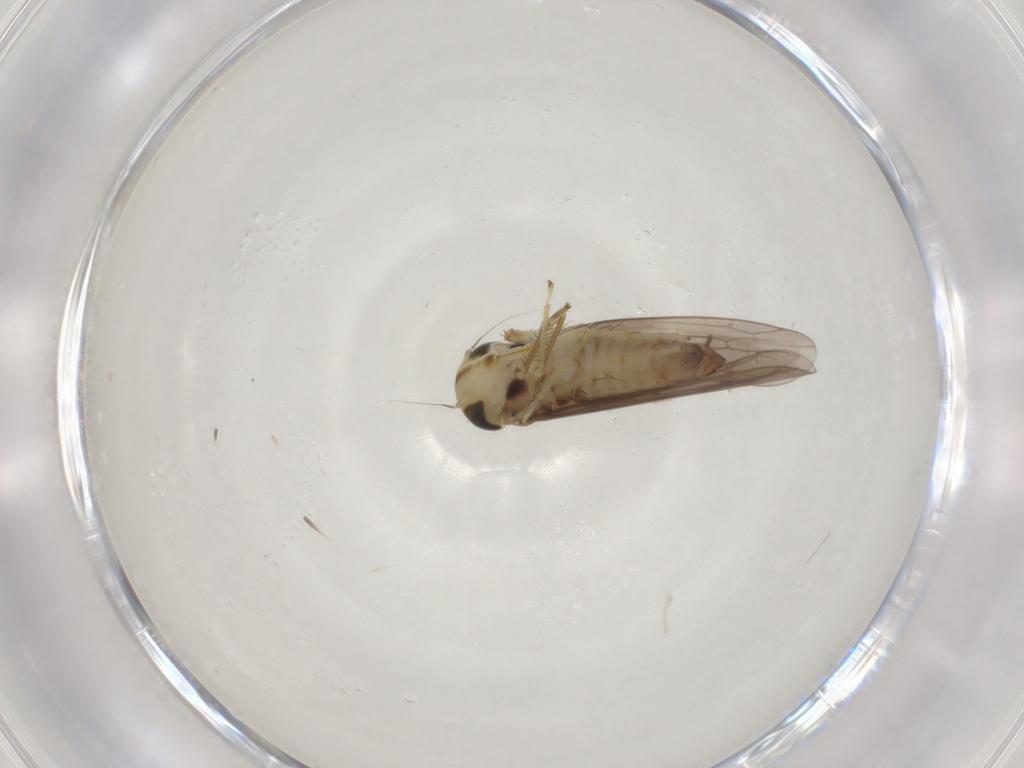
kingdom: Animalia
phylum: Arthropoda
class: Insecta
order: Hemiptera
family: Cicadellidae
